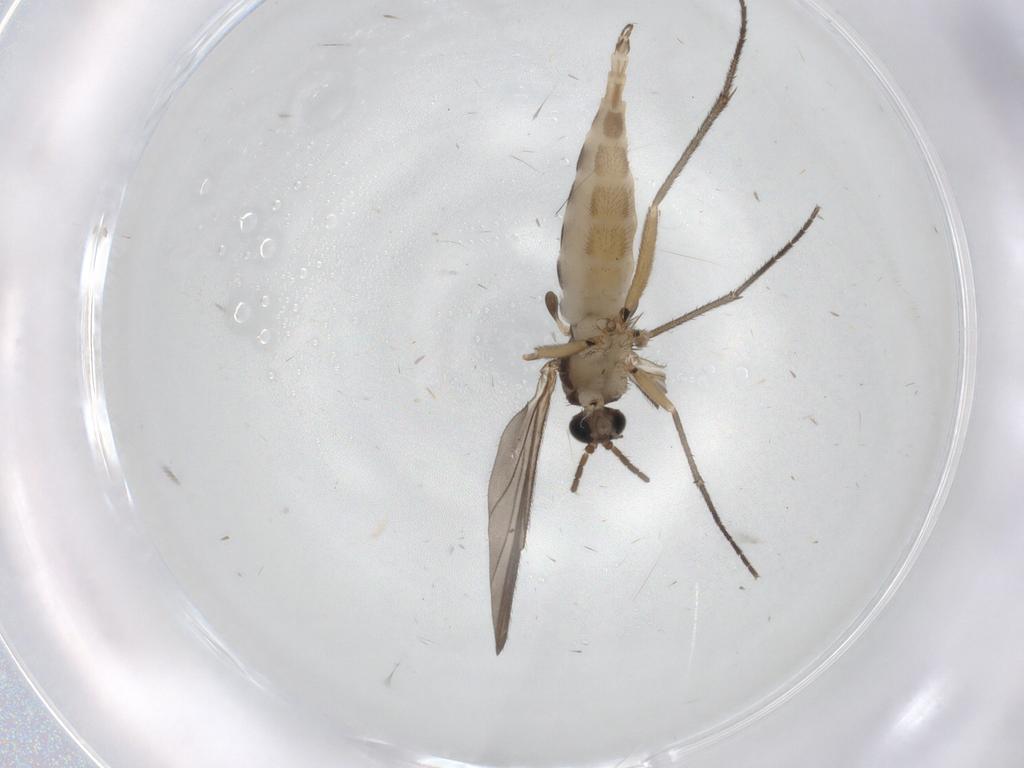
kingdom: Animalia
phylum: Arthropoda
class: Insecta
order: Diptera
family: Sciaridae
